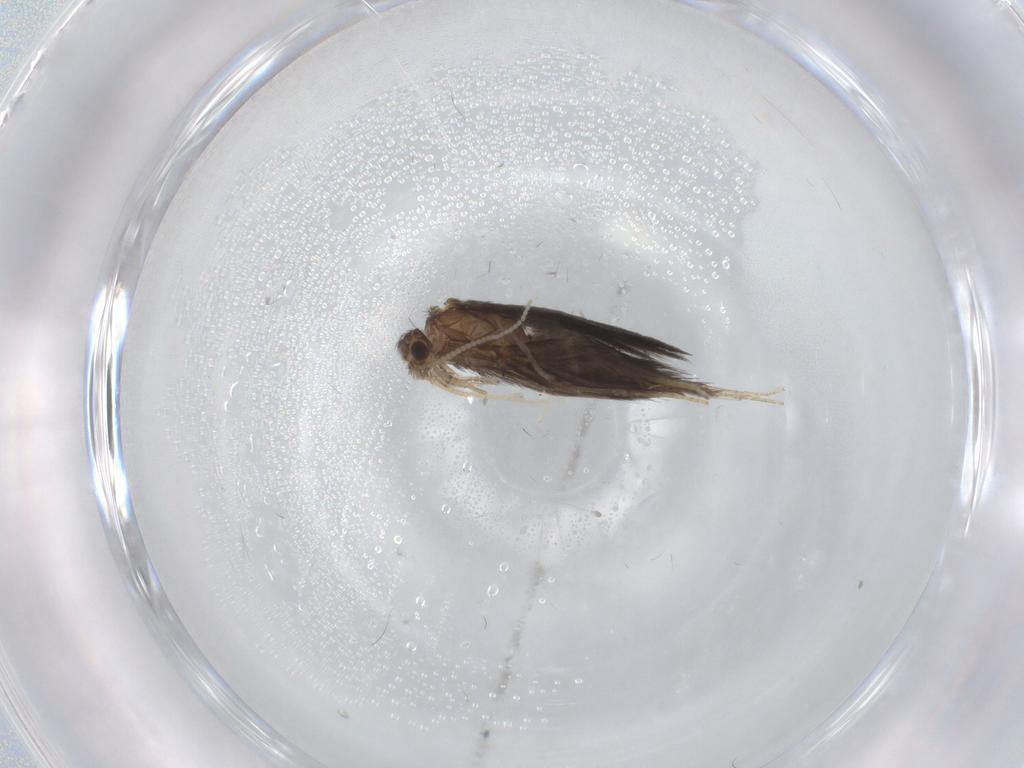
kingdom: Animalia
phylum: Arthropoda
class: Insecta
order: Trichoptera
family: Hydroptilidae
